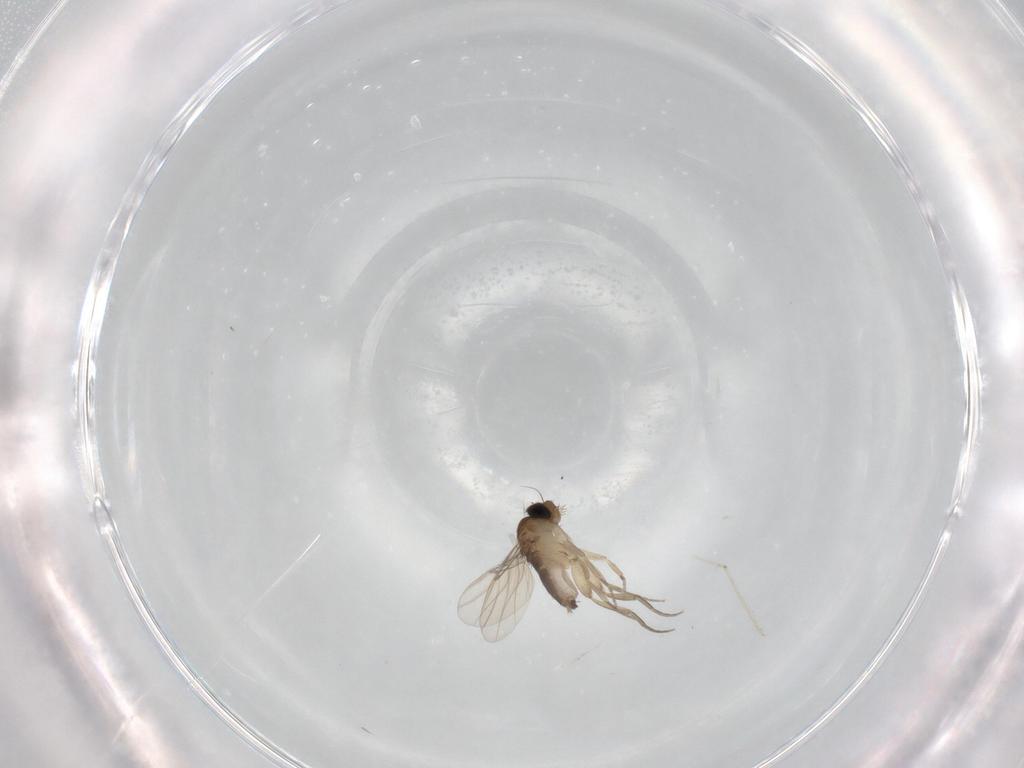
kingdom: Animalia
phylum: Arthropoda
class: Insecta
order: Diptera
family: Phoridae
